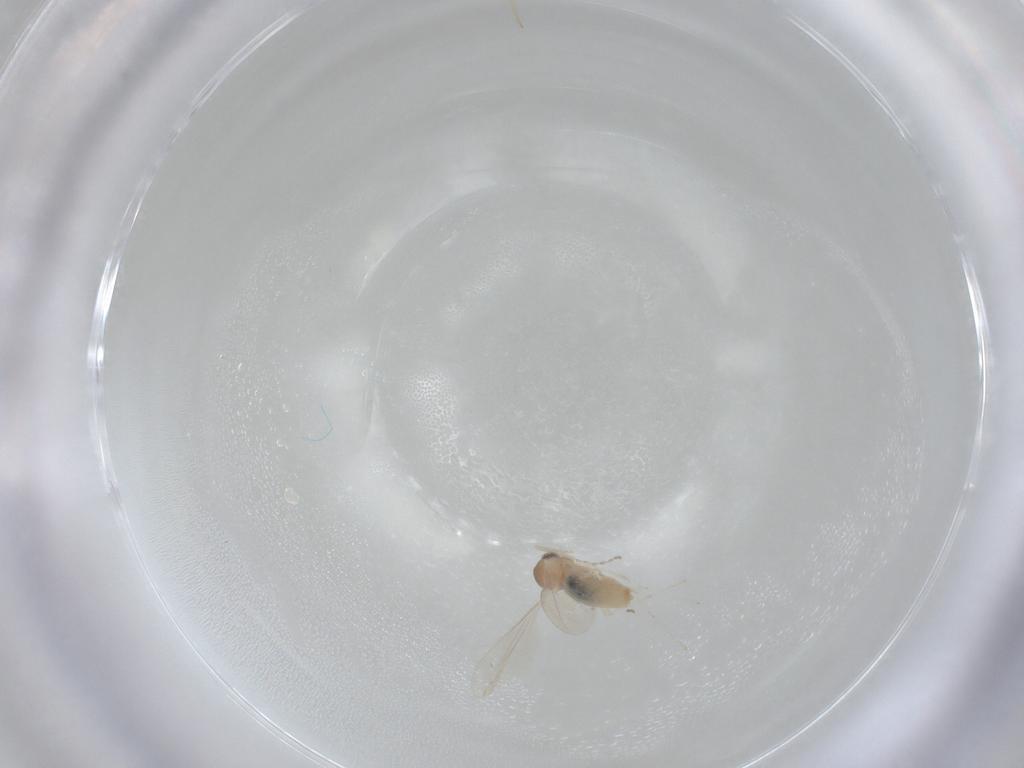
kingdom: Animalia
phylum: Arthropoda
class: Insecta
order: Diptera
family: Cecidomyiidae
